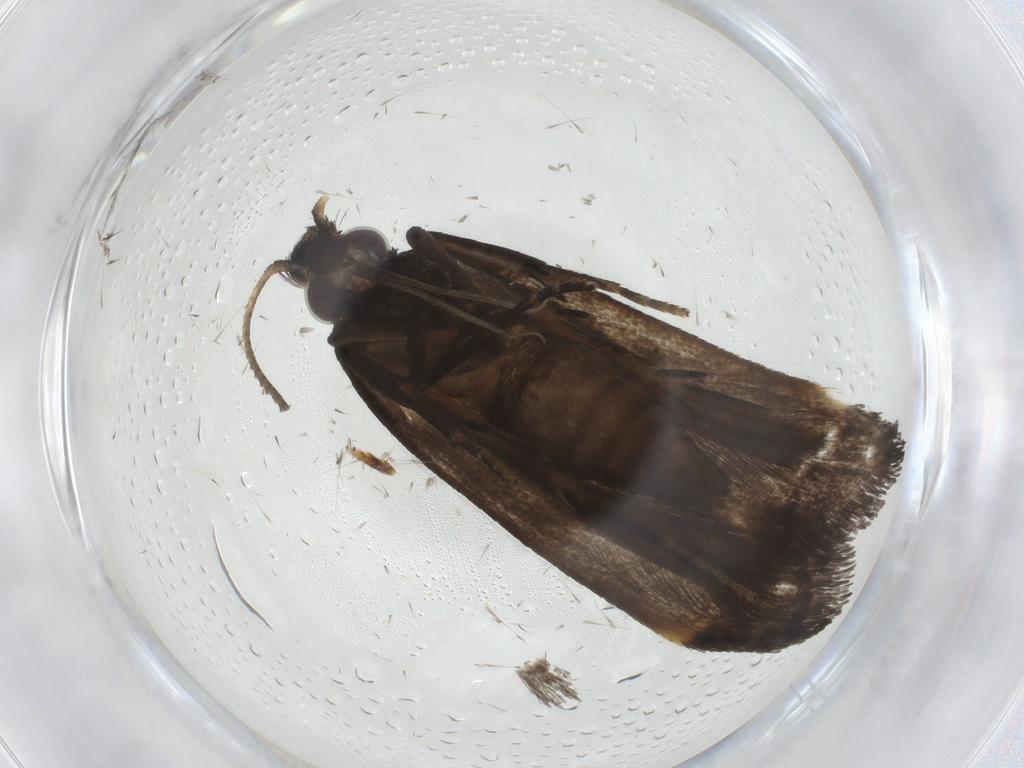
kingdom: Animalia
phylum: Arthropoda
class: Insecta
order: Lepidoptera
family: Gelechiidae
